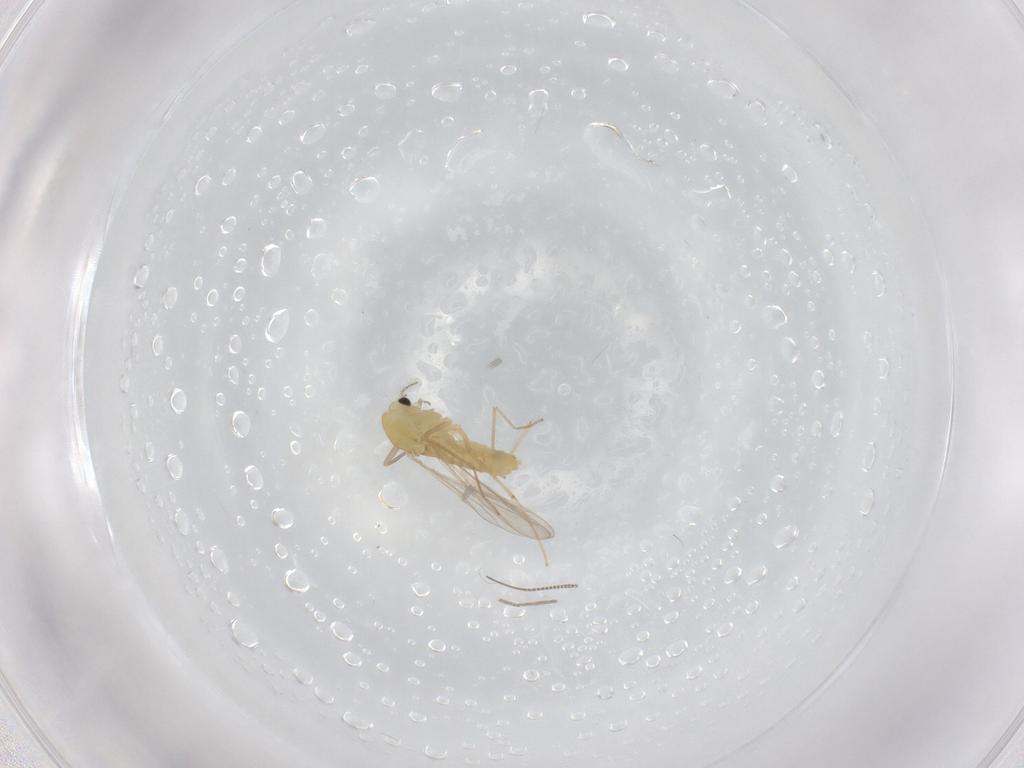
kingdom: Animalia
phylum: Arthropoda
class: Insecta
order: Diptera
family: Chironomidae
